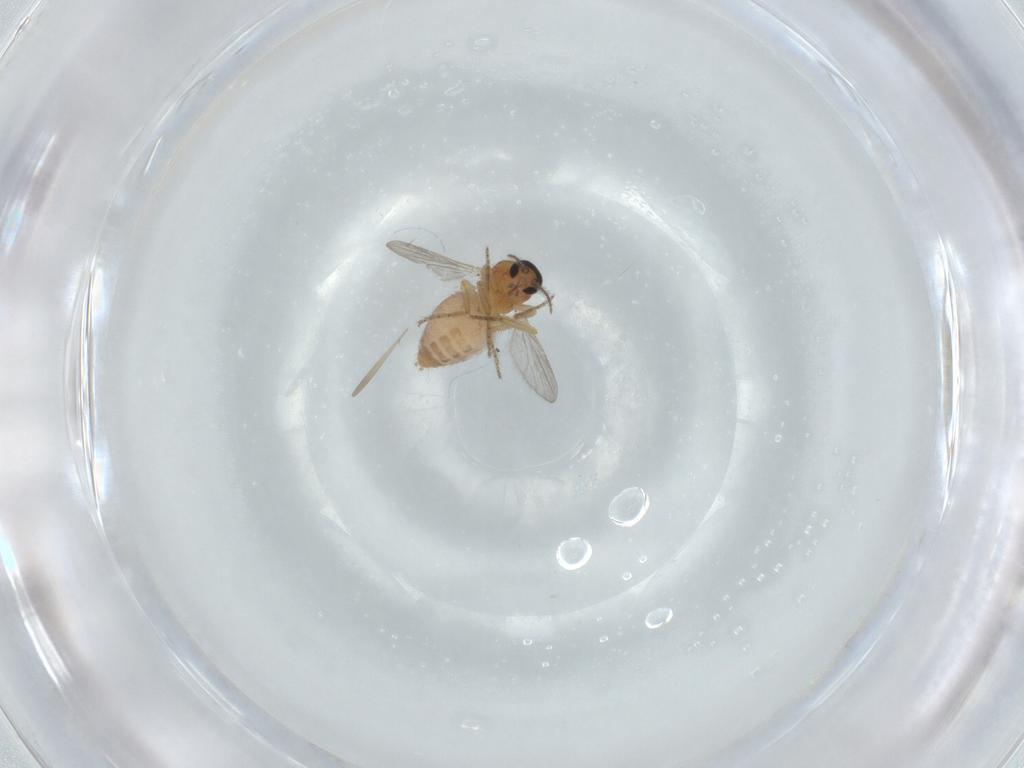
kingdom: Animalia
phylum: Arthropoda
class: Insecta
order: Diptera
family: Ceratopogonidae
